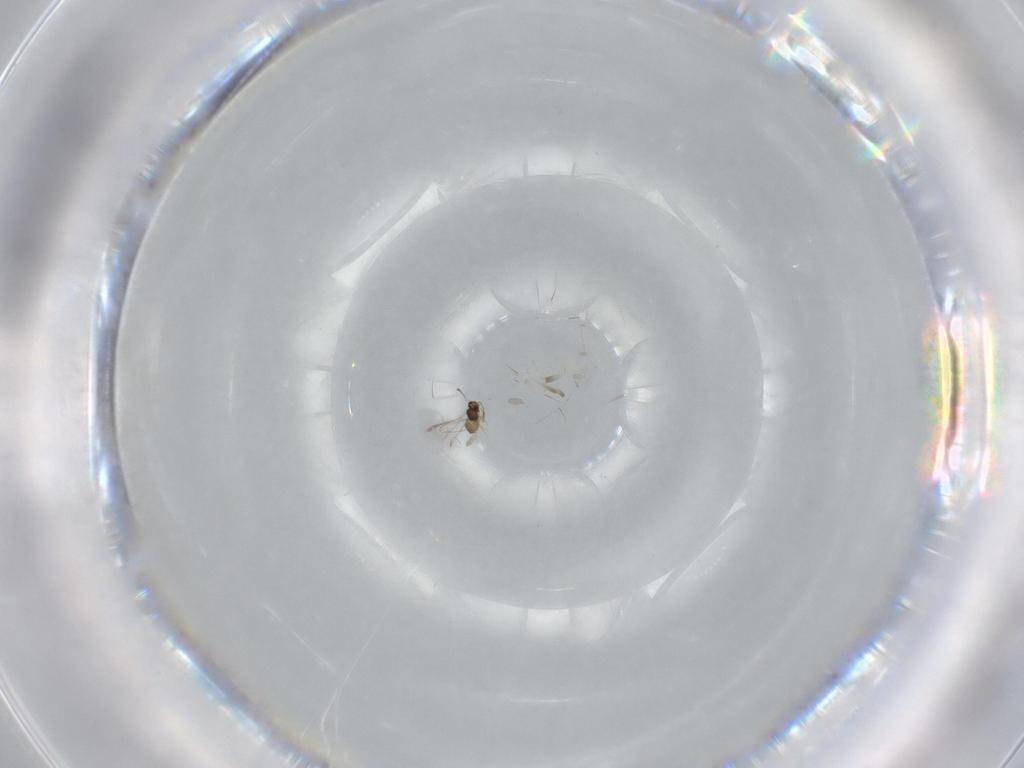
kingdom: Animalia
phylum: Arthropoda
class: Insecta
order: Hymenoptera
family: Diapriidae
